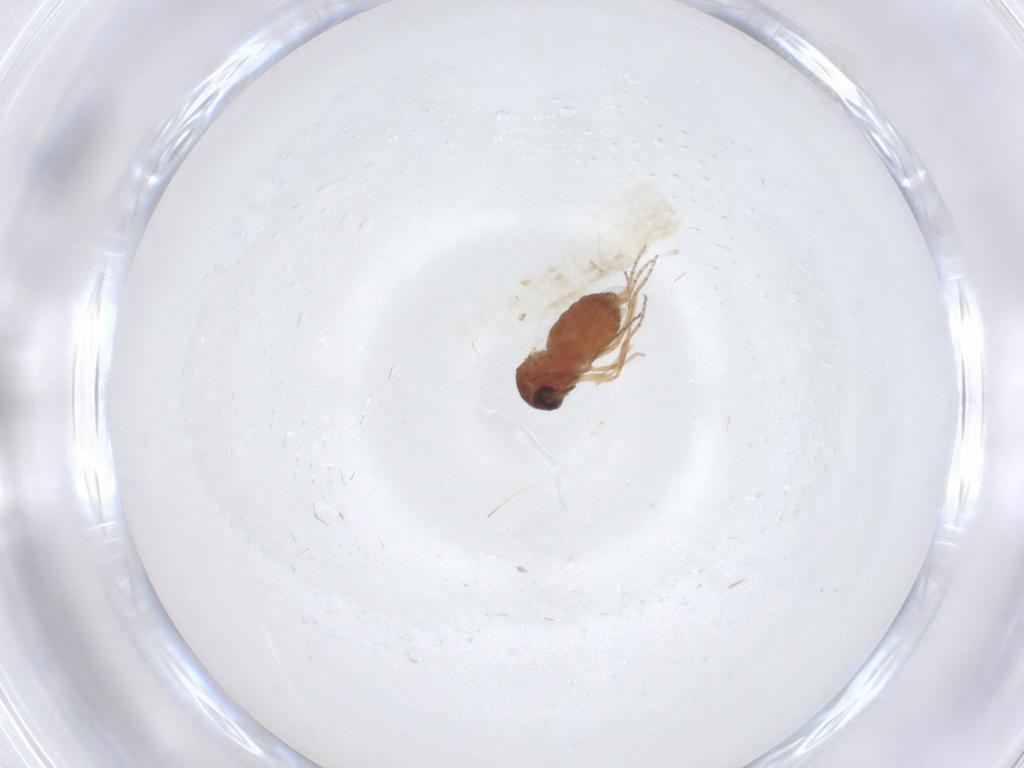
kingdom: Animalia
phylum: Arthropoda
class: Insecta
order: Diptera
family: Ceratopogonidae
